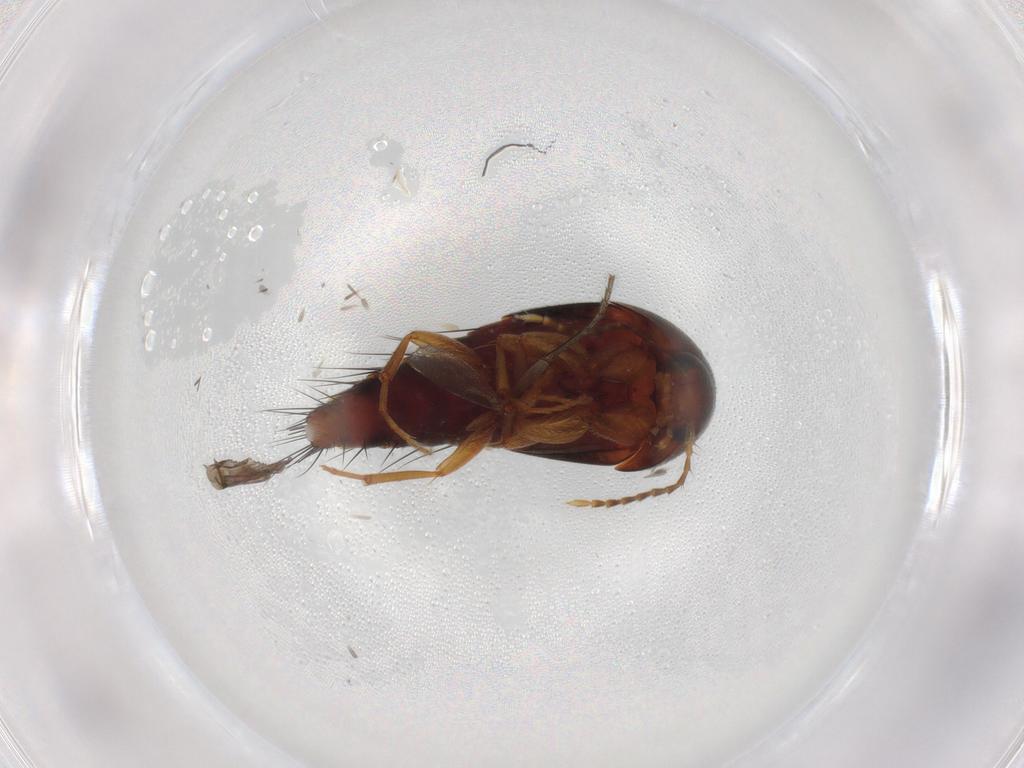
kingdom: Animalia
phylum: Arthropoda
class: Insecta
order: Coleoptera
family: Staphylinidae
